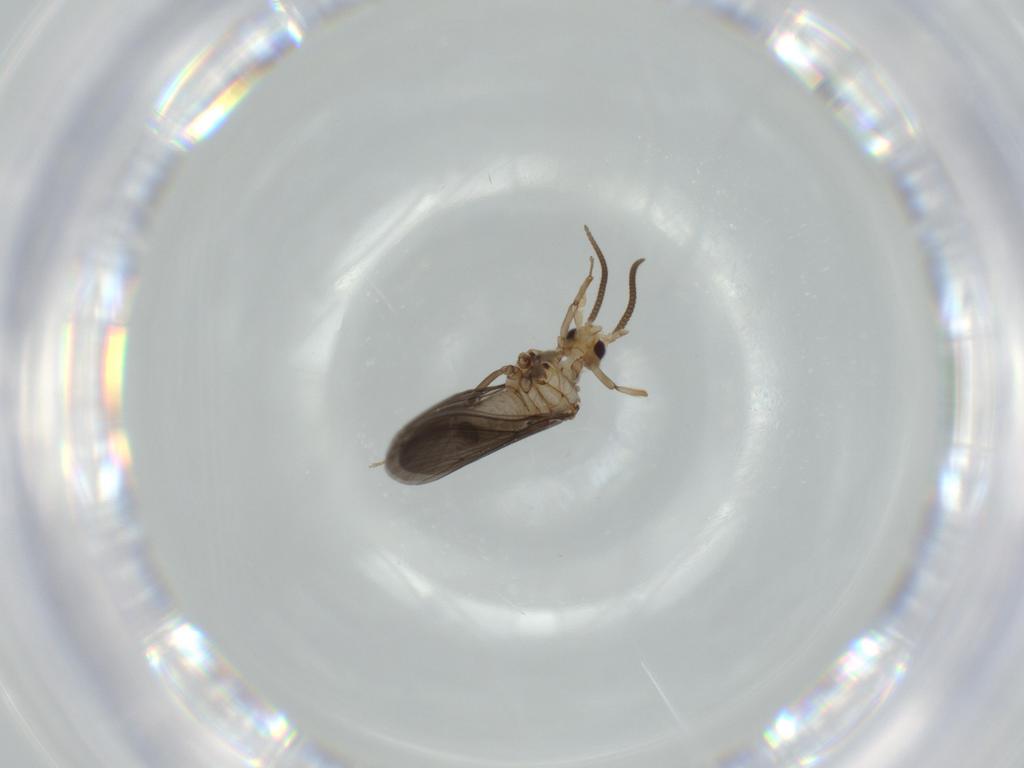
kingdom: Animalia
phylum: Arthropoda
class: Insecta
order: Neuroptera
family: Coniopterygidae
